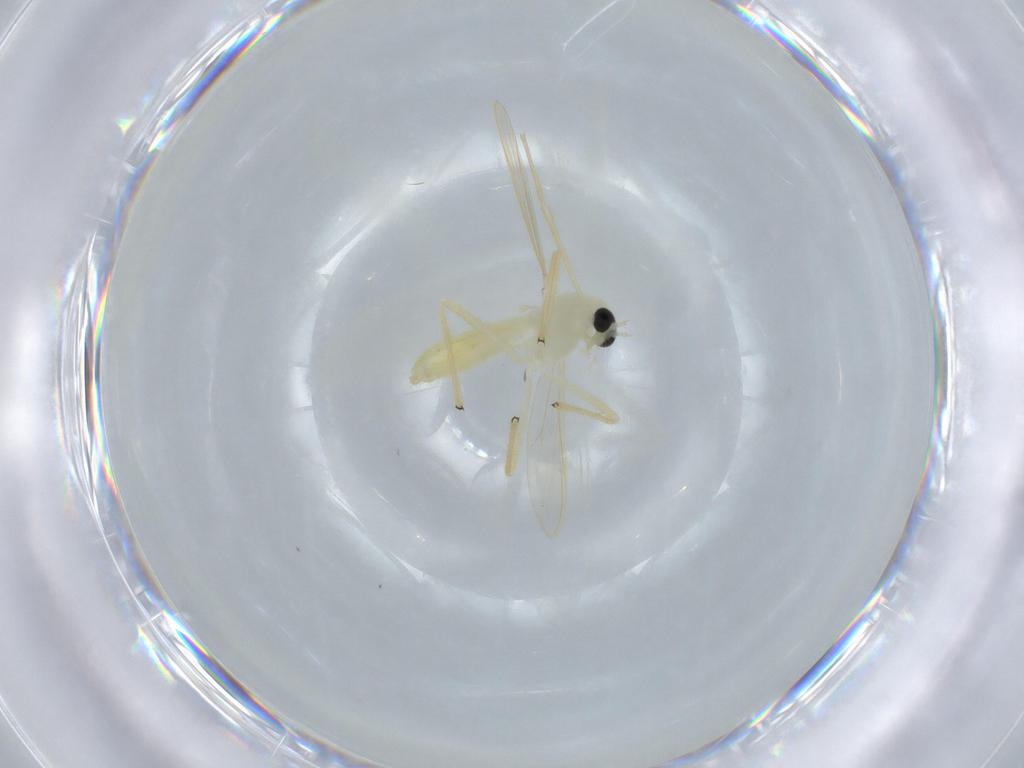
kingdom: Animalia
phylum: Arthropoda
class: Insecta
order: Diptera
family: Chironomidae
